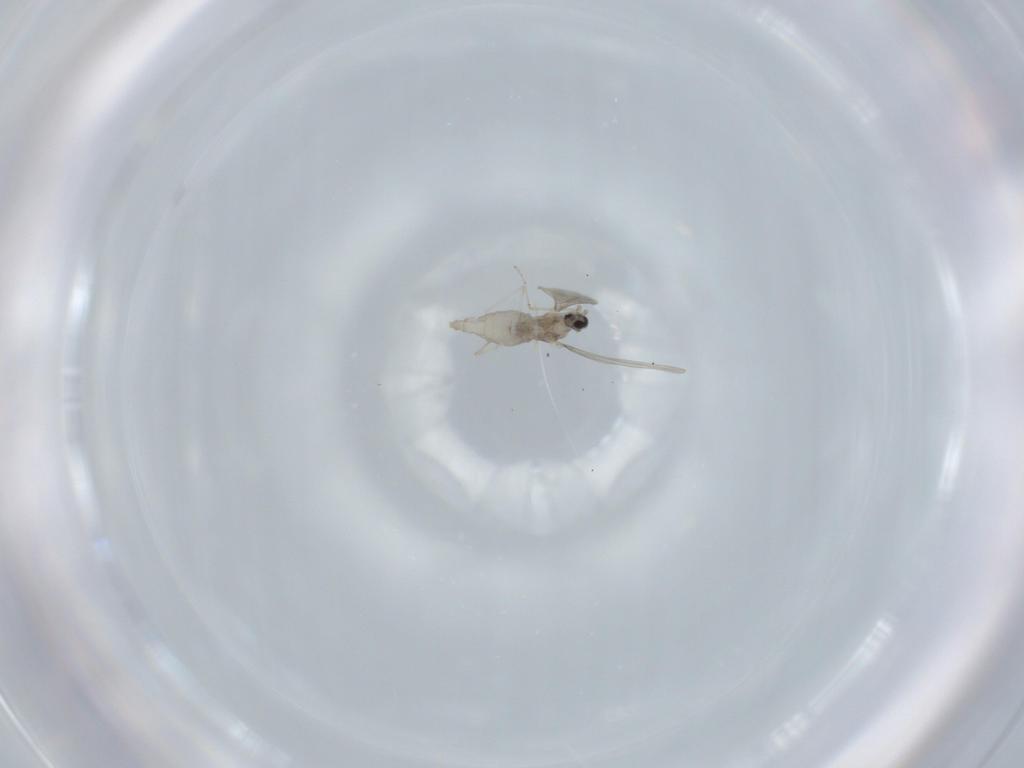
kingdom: Animalia
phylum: Arthropoda
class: Insecta
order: Diptera
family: Cecidomyiidae
